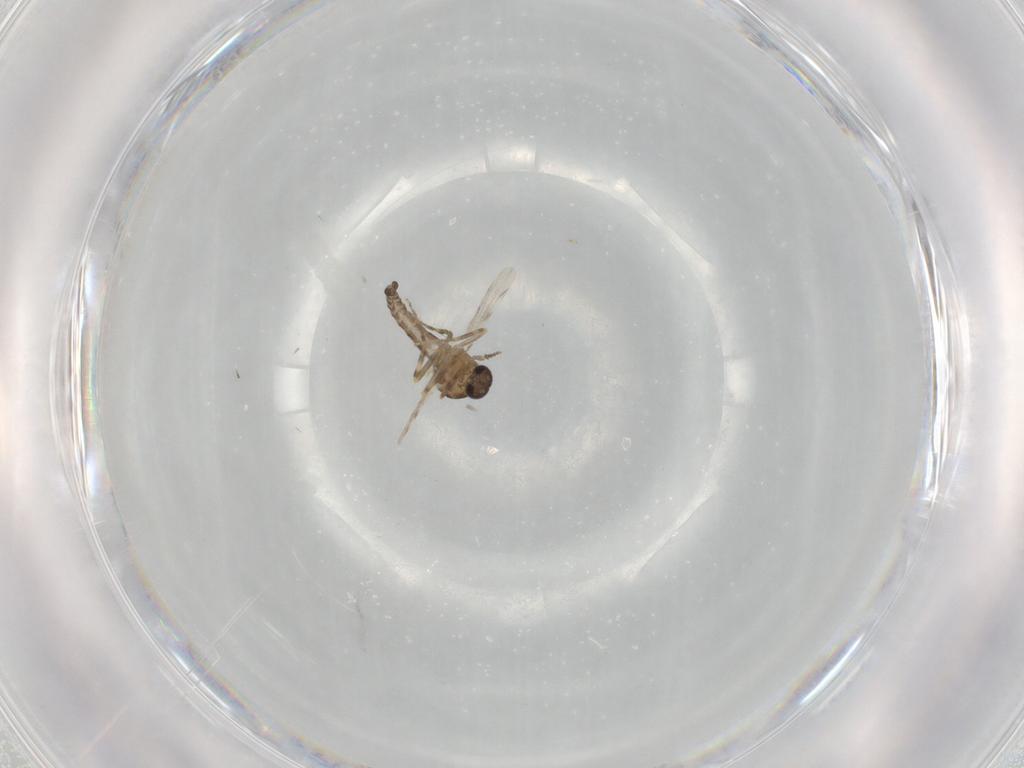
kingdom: Animalia
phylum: Arthropoda
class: Insecta
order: Diptera
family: Ceratopogonidae
